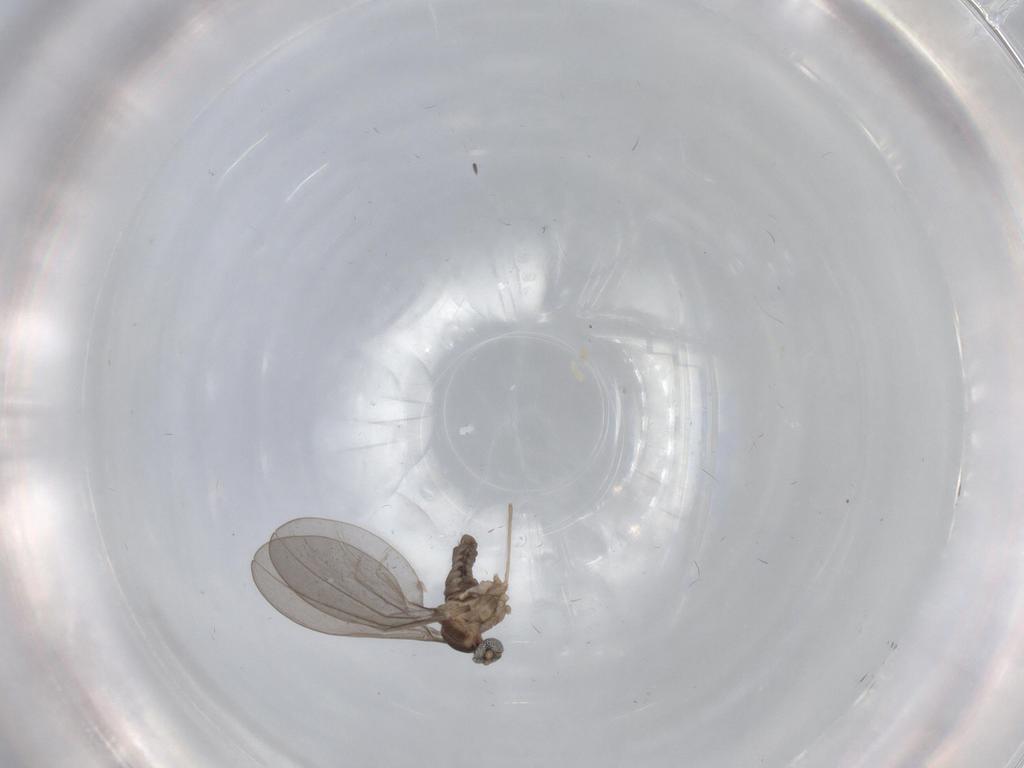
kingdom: Animalia
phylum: Arthropoda
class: Insecta
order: Diptera
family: Cecidomyiidae
